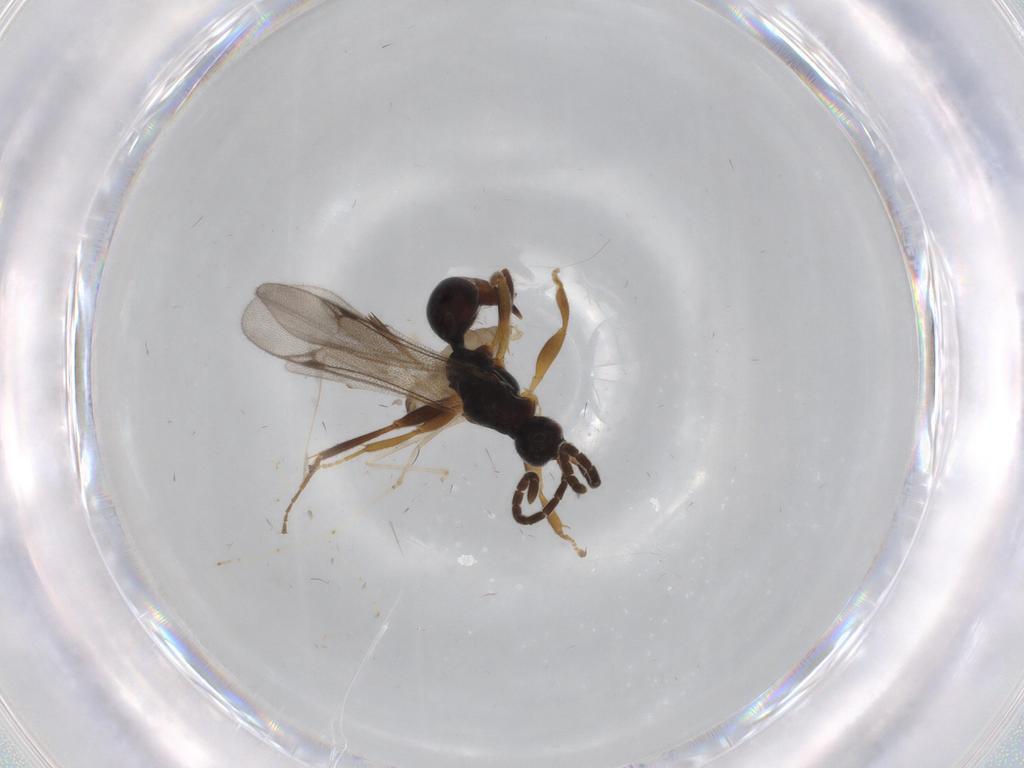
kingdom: Animalia
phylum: Arthropoda
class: Insecta
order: Hymenoptera
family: Proctotrupidae
